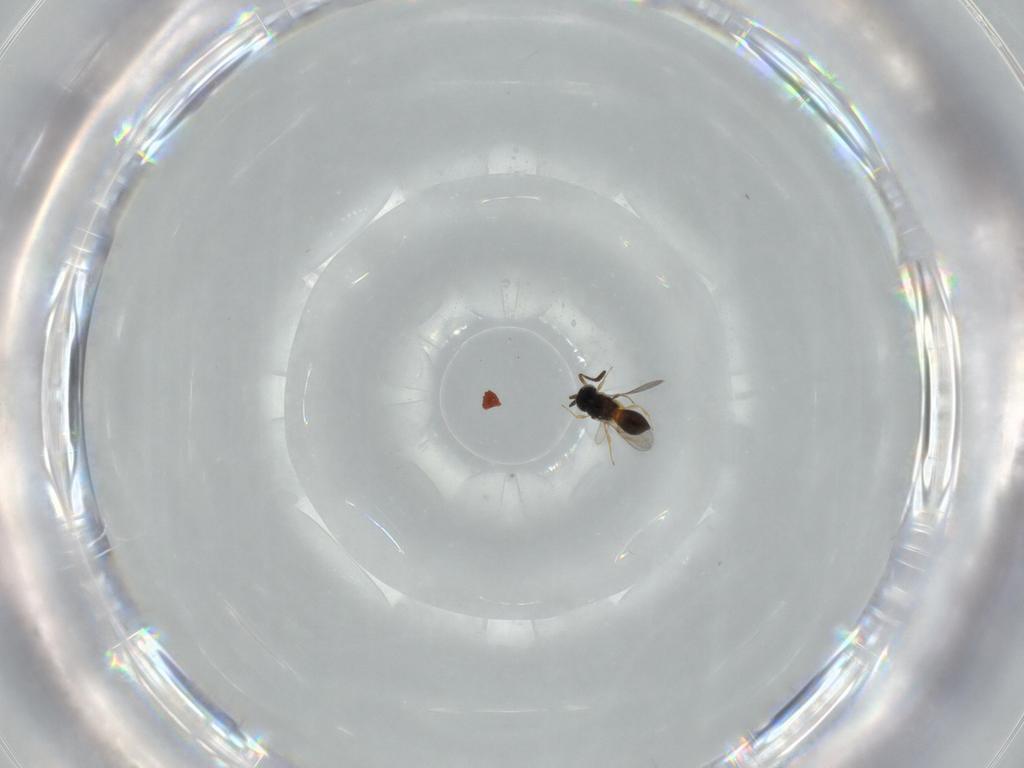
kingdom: Animalia
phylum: Arthropoda
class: Insecta
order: Hymenoptera
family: Scelionidae
